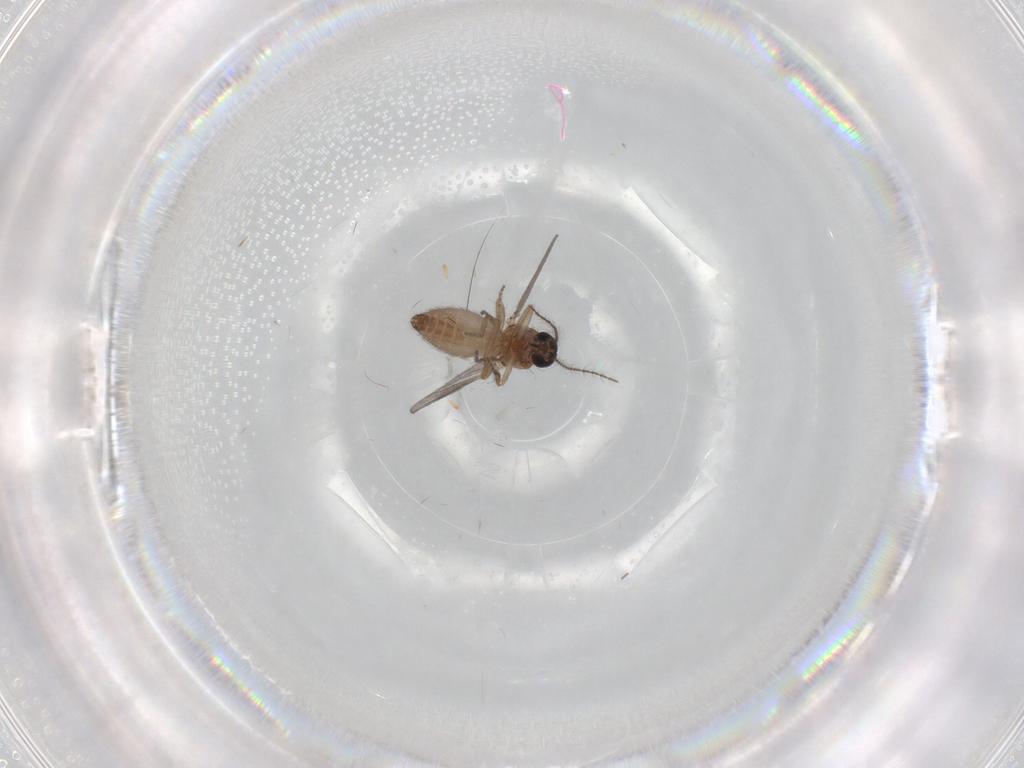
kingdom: Animalia
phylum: Arthropoda
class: Insecta
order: Diptera
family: Ceratopogonidae
